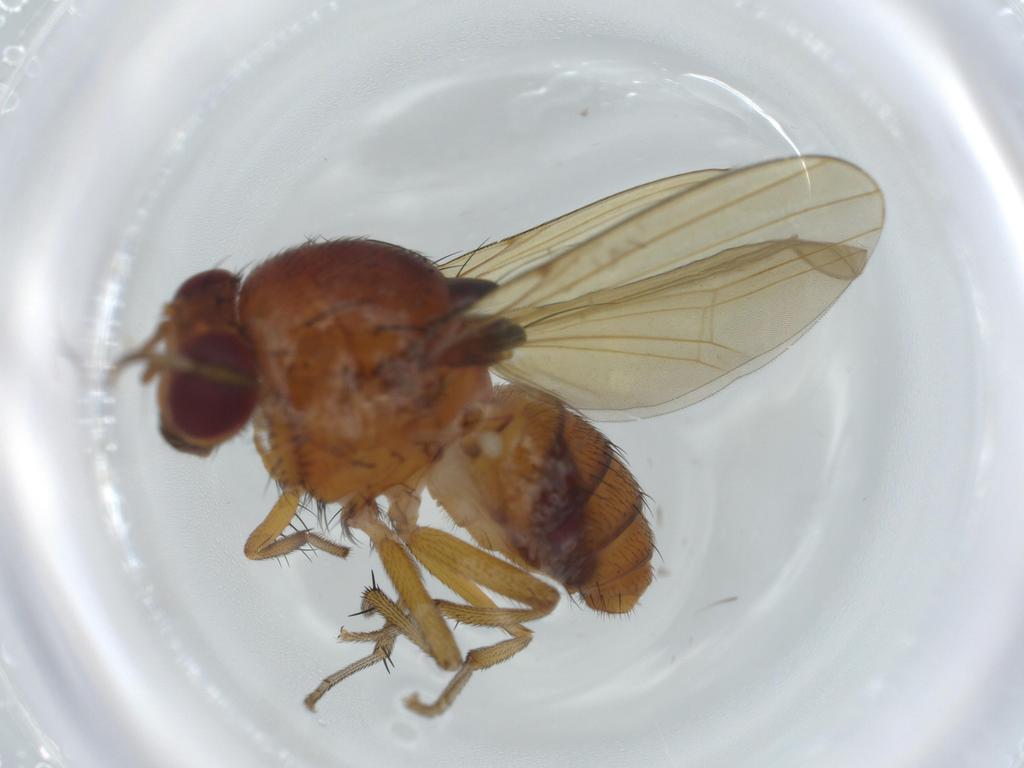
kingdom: Animalia
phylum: Arthropoda
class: Insecta
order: Diptera
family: Lauxaniidae
